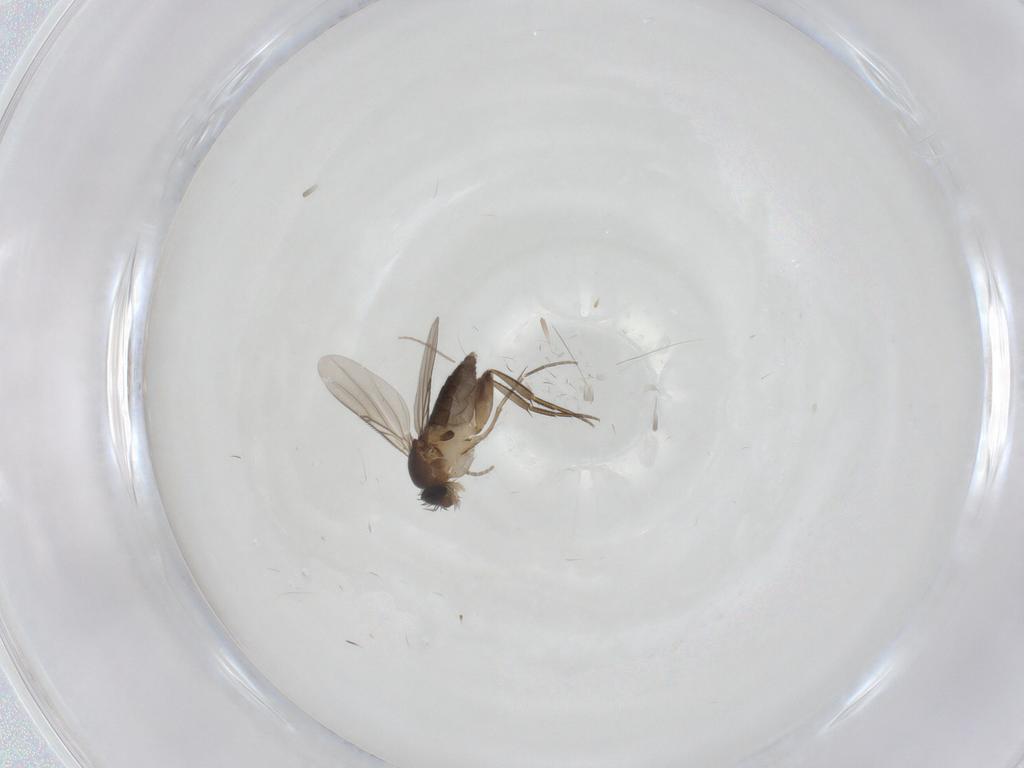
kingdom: Animalia
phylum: Arthropoda
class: Insecta
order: Diptera
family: Phoridae
